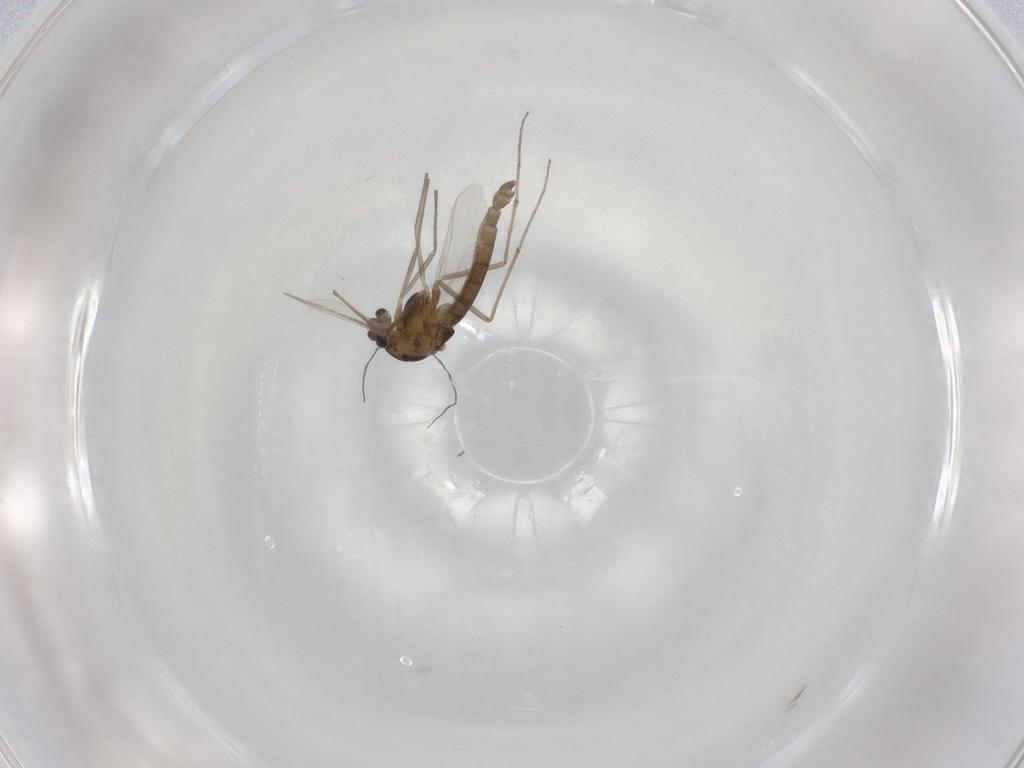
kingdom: Animalia
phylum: Arthropoda
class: Insecta
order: Diptera
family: Chironomidae
